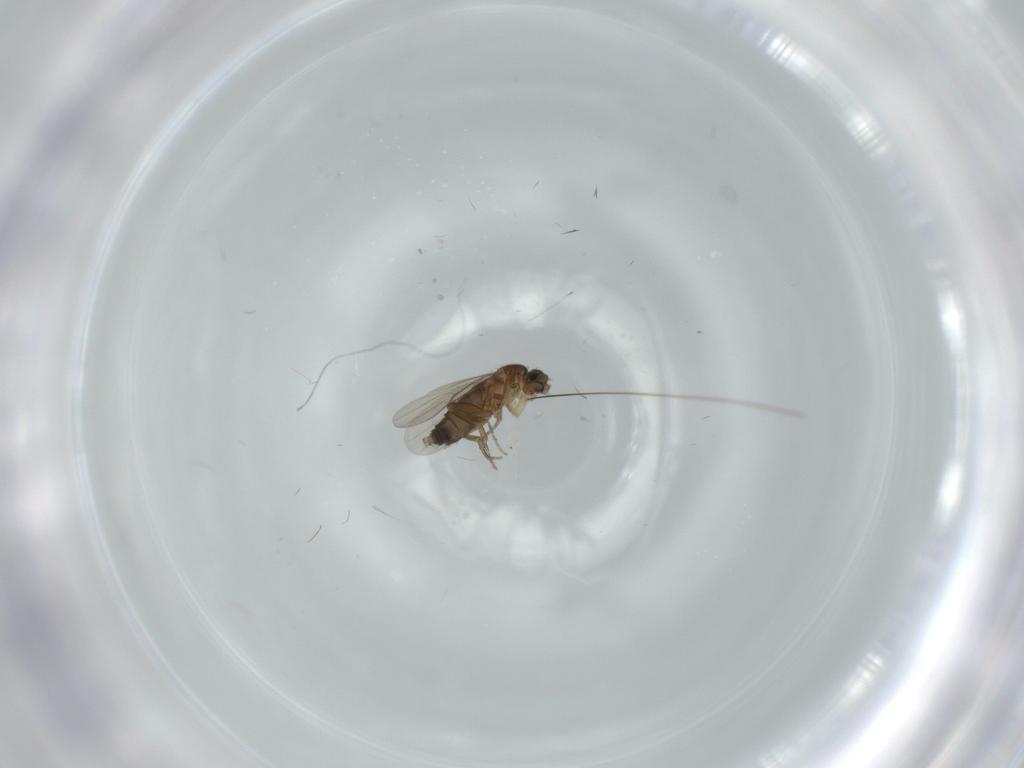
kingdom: Animalia
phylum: Arthropoda
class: Insecta
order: Diptera
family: Phoridae
